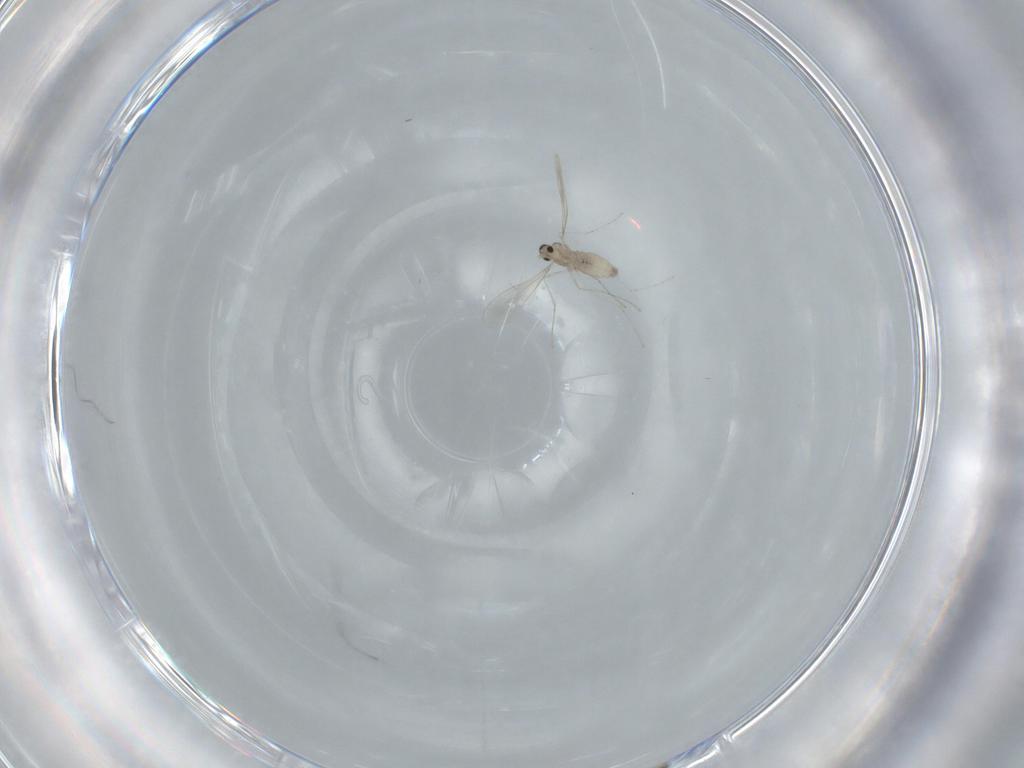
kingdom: Animalia
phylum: Arthropoda
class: Insecta
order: Diptera
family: Cecidomyiidae
